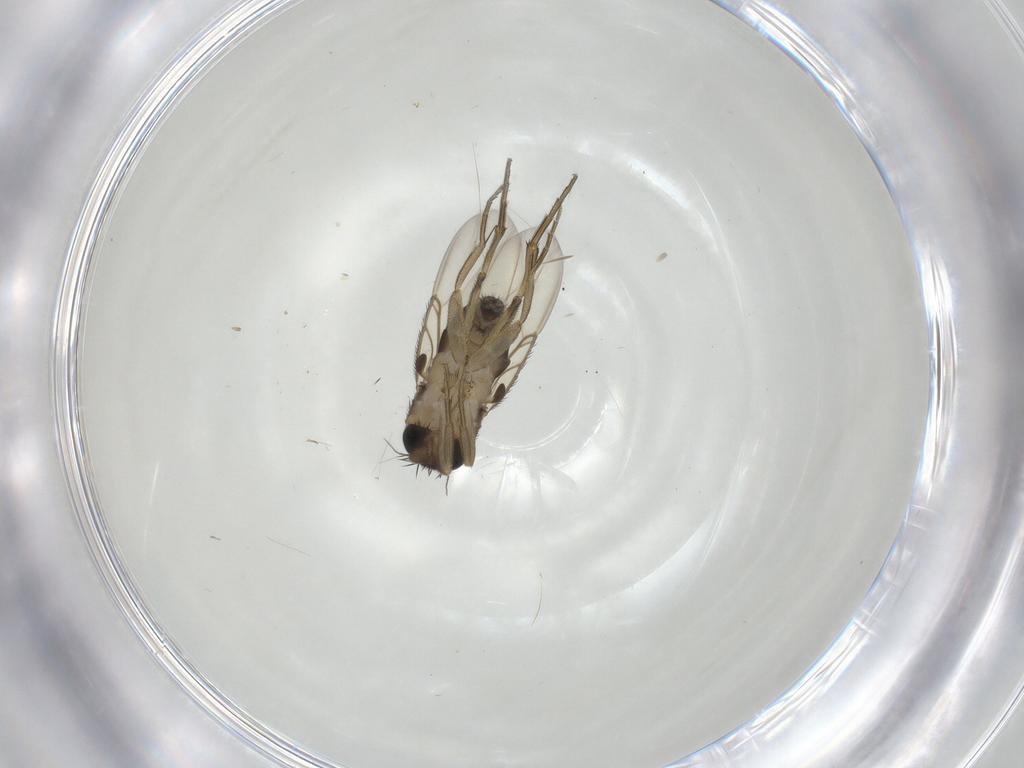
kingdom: Animalia
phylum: Arthropoda
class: Insecta
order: Diptera
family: Phoridae
